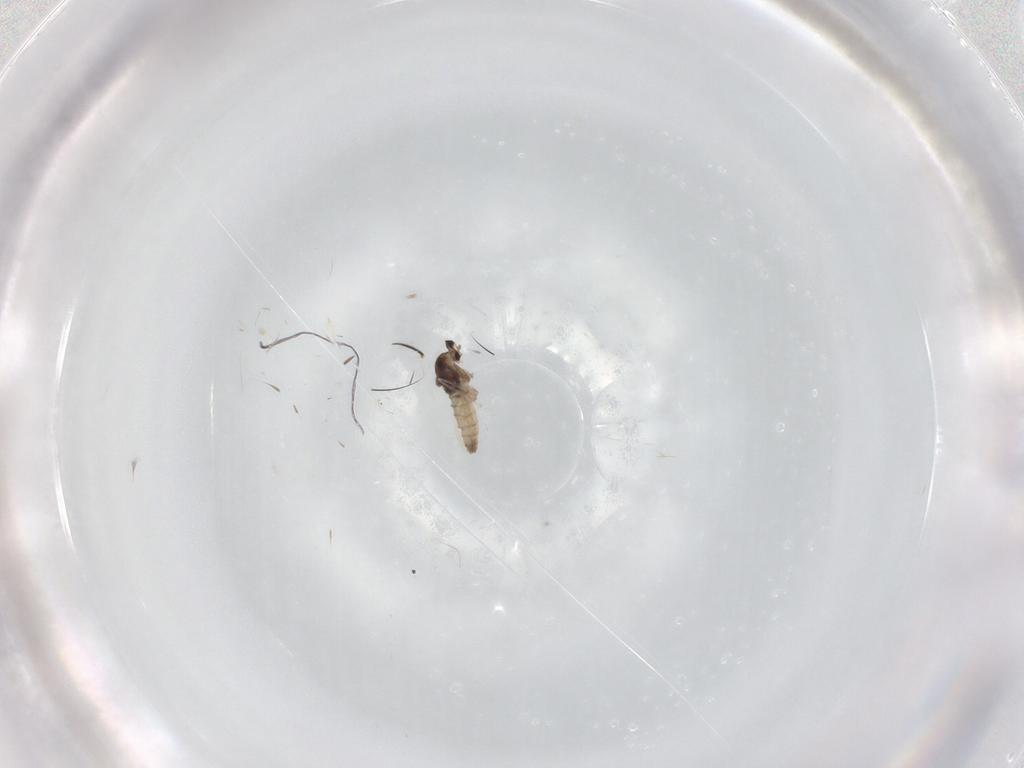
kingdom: Animalia
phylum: Arthropoda
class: Insecta
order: Diptera
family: Cecidomyiidae
